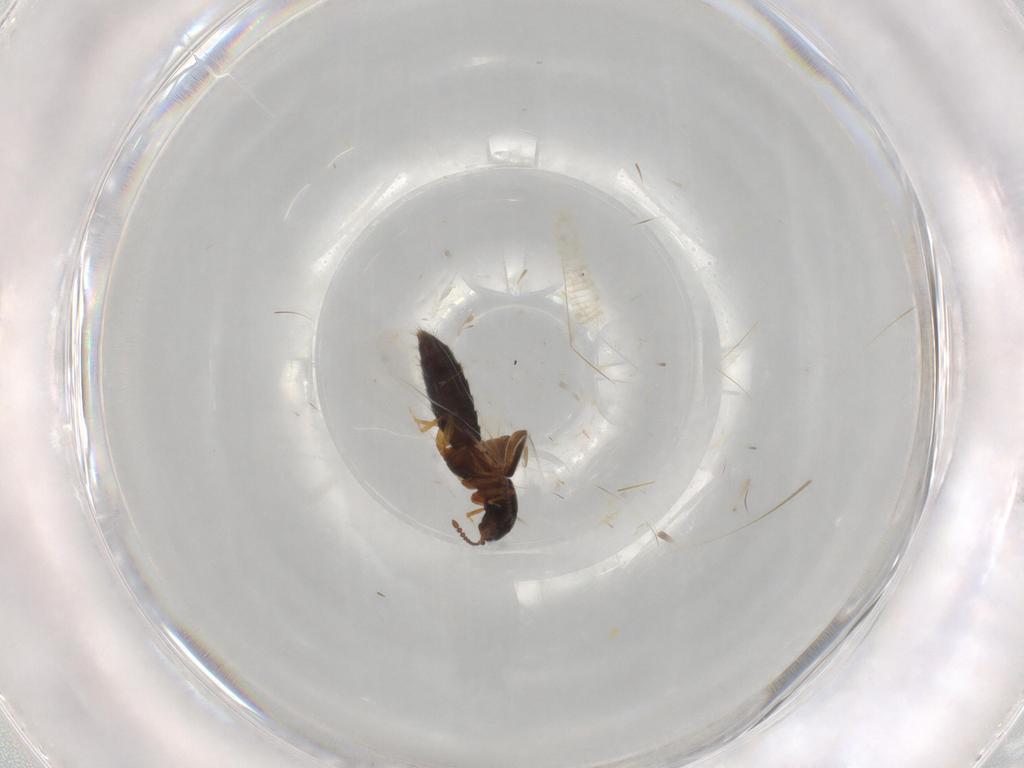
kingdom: Animalia
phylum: Arthropoda
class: Insecta
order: Coleoptera
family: Staphylinidae
